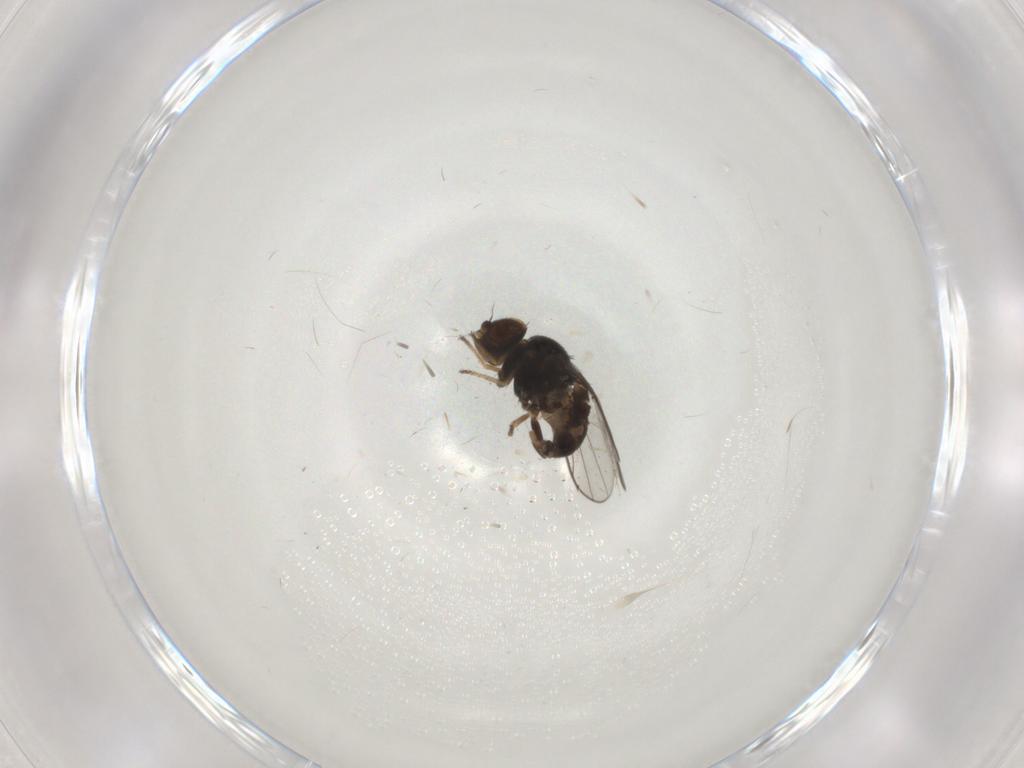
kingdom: Animalia
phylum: Arthropoda
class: Insecta
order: Diptera
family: Chloropidae
